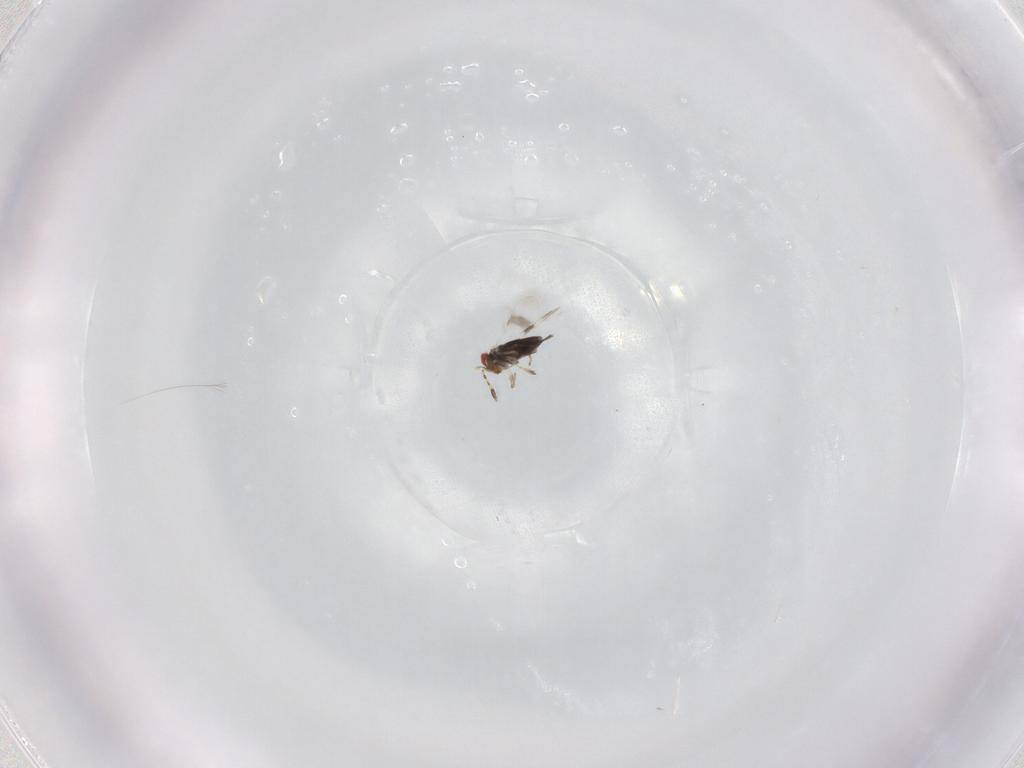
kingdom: Animalia
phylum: Arthropoda
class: Insecta
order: Hymenoptera
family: Azotidae
